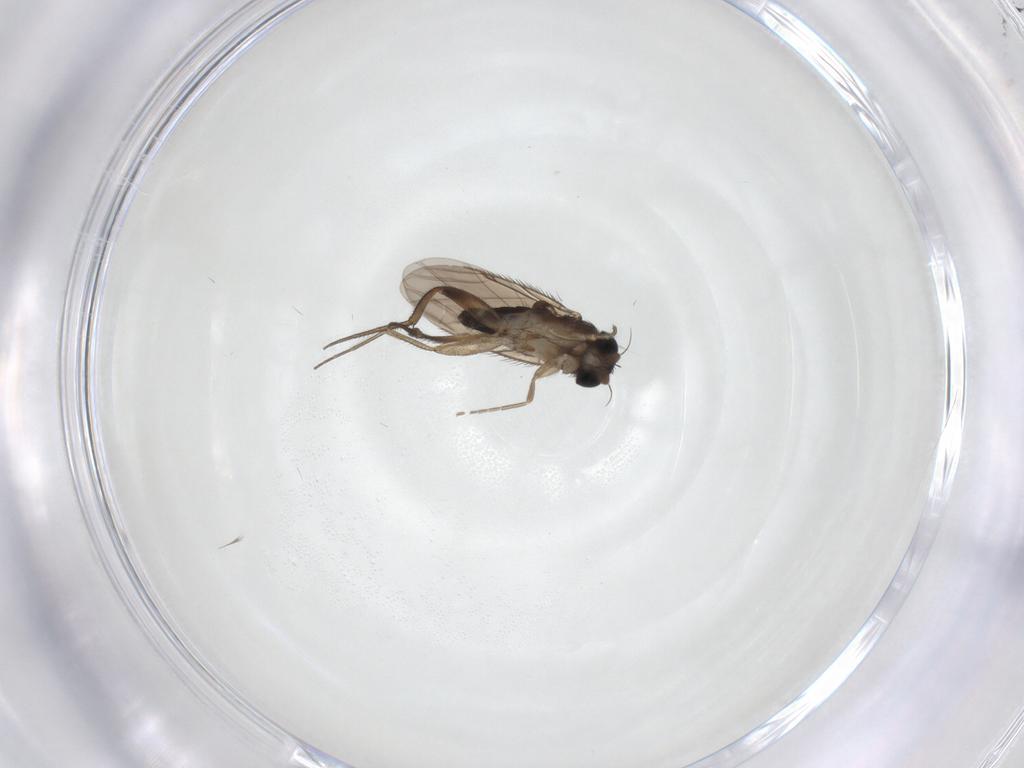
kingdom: Animalia
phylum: Arthropoda
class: Insecta
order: Diptera
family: Phoridae
